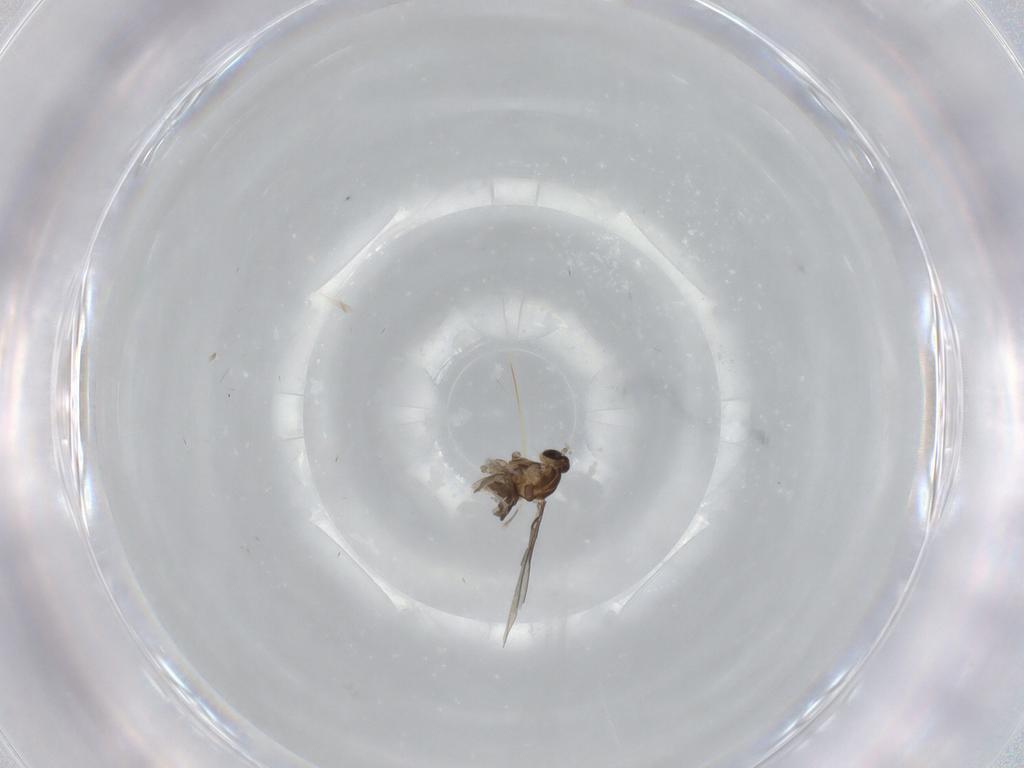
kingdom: Animalia
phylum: Arthropoda
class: Insecta
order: Diptera
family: Cecidomyiidae
